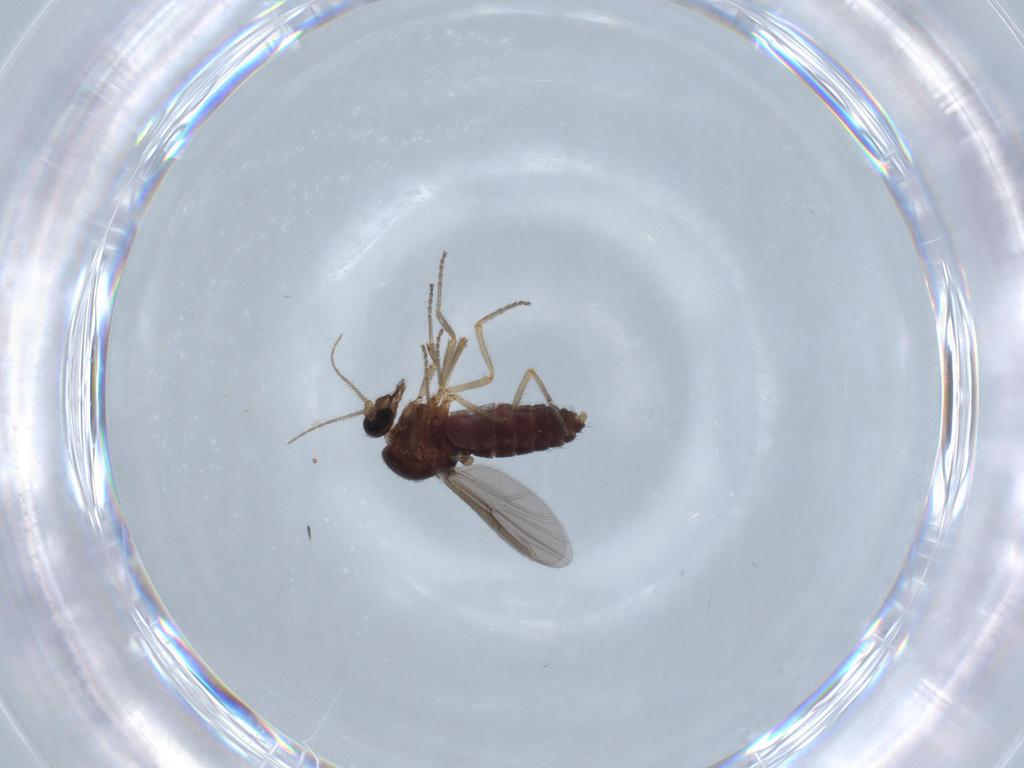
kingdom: Animalia
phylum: Arthropoda
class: Insecta
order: Diptera
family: Ceratopogonidae
